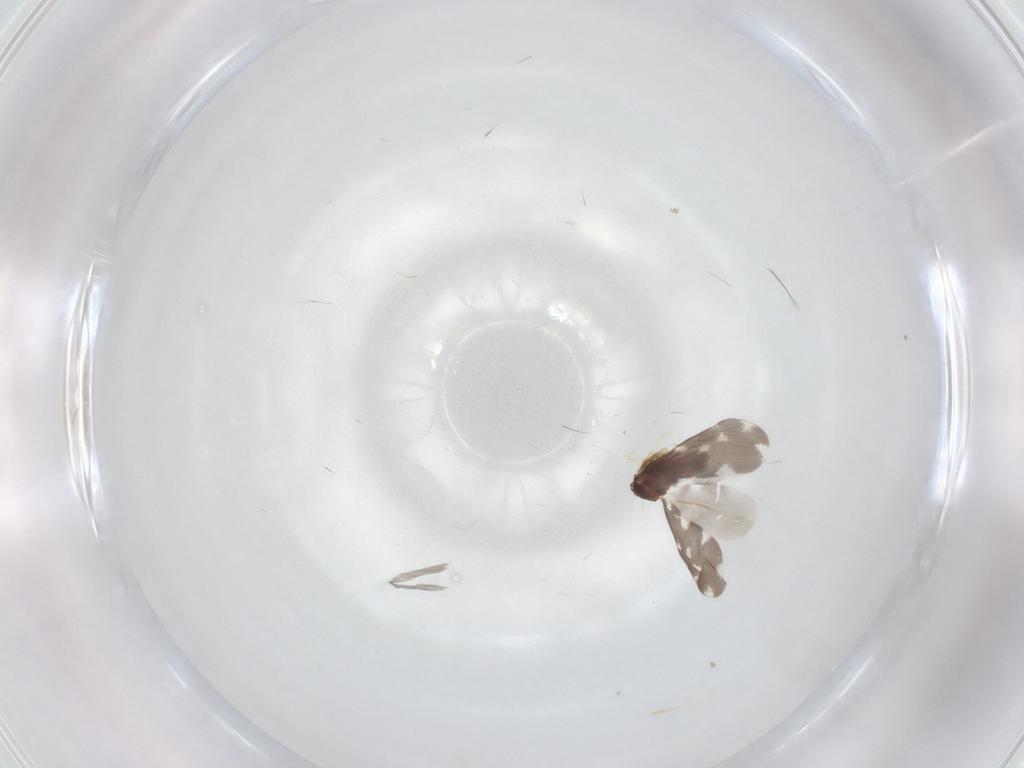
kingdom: Animalia
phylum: Arthropoda
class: Insecta
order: Hemiptera
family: Aleyrodidae
